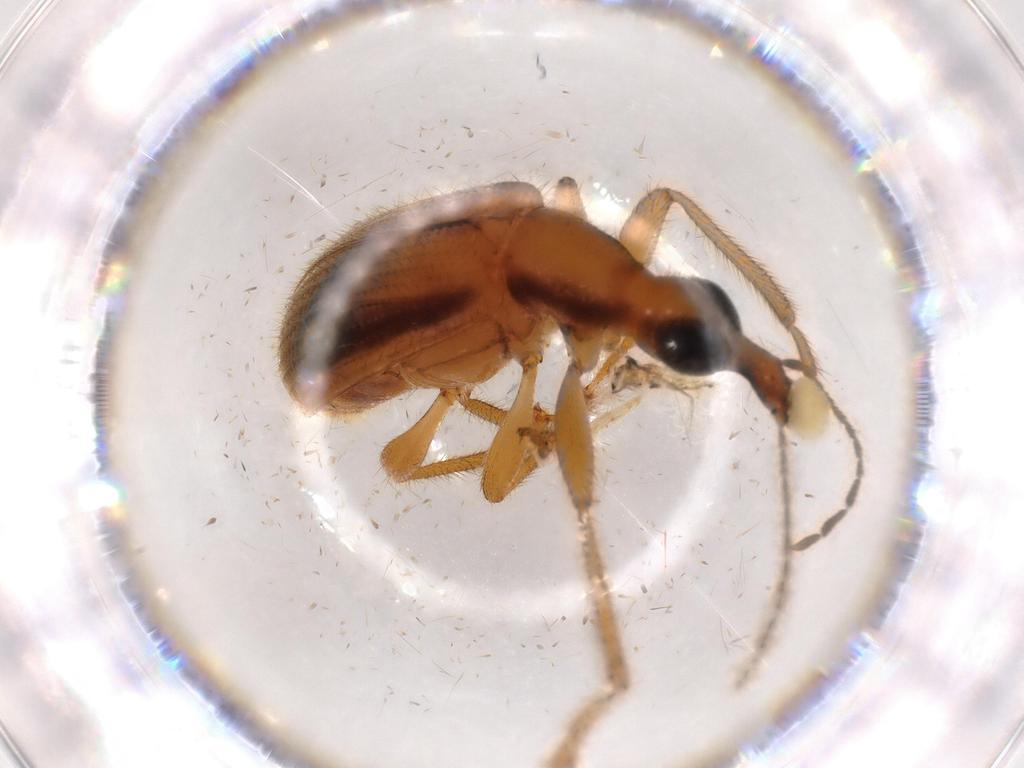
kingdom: Animalia
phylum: Arthropoda
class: Insecta
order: Coleoptera
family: Attelabidae
